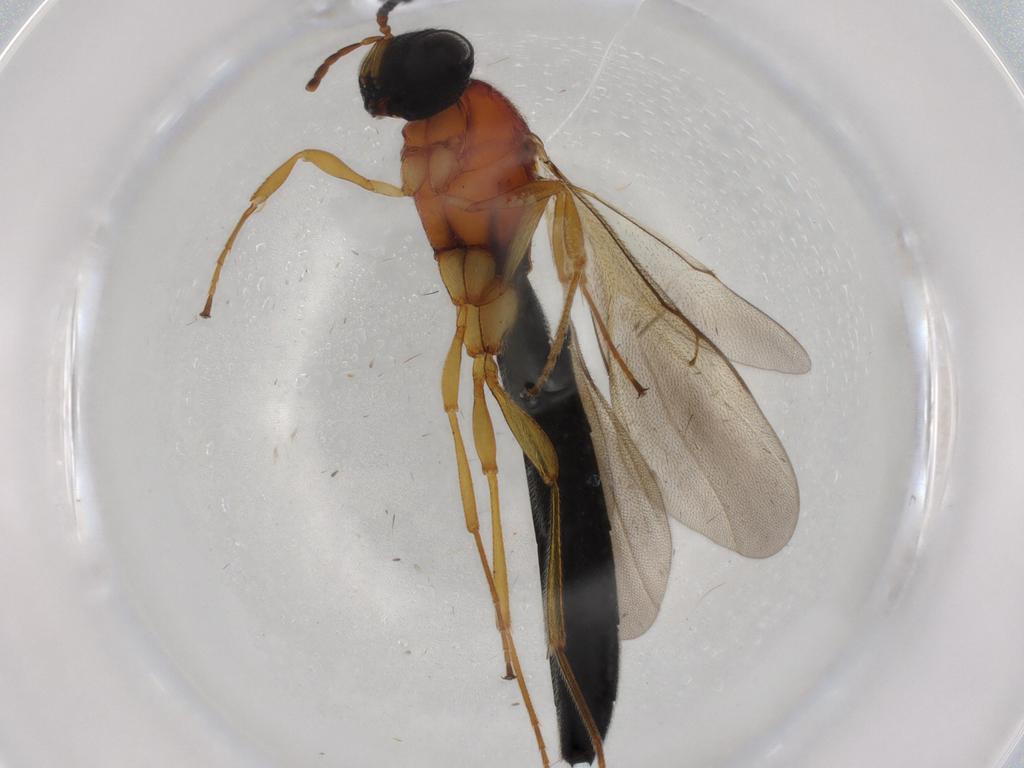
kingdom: Animalia
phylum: Arthropoda
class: Insecta
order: Hymenoptera
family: Scelionidae
